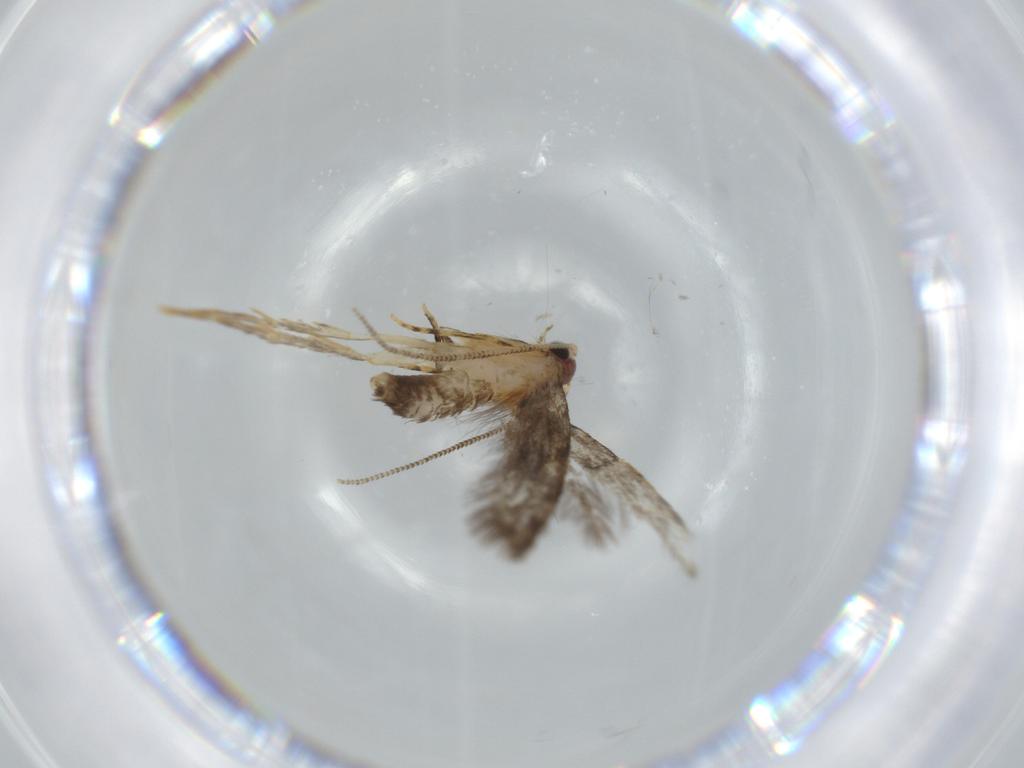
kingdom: Animalia
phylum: Arthropoda
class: Insecta
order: Lepidoptera
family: Tineidae
